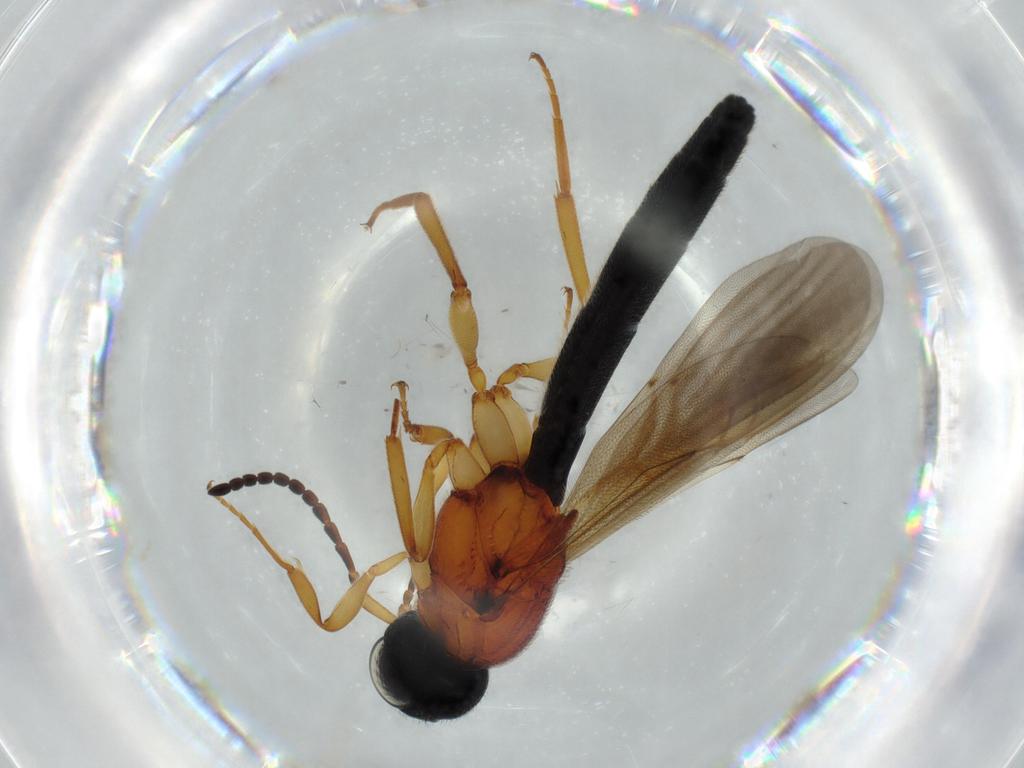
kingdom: Animalia
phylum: Arthropoda
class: Insecta
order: Hymenoptera
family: Scelionidae
